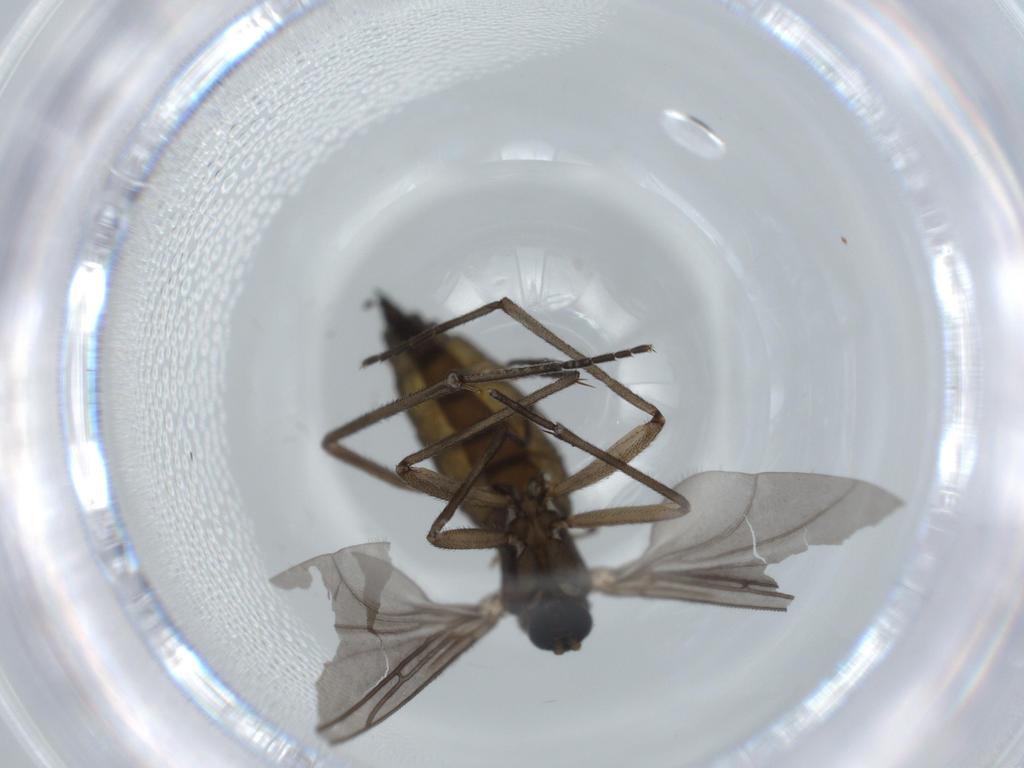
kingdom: Animalia
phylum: Arthropoda
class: Insecta
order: Diptera
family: Sciaridae
